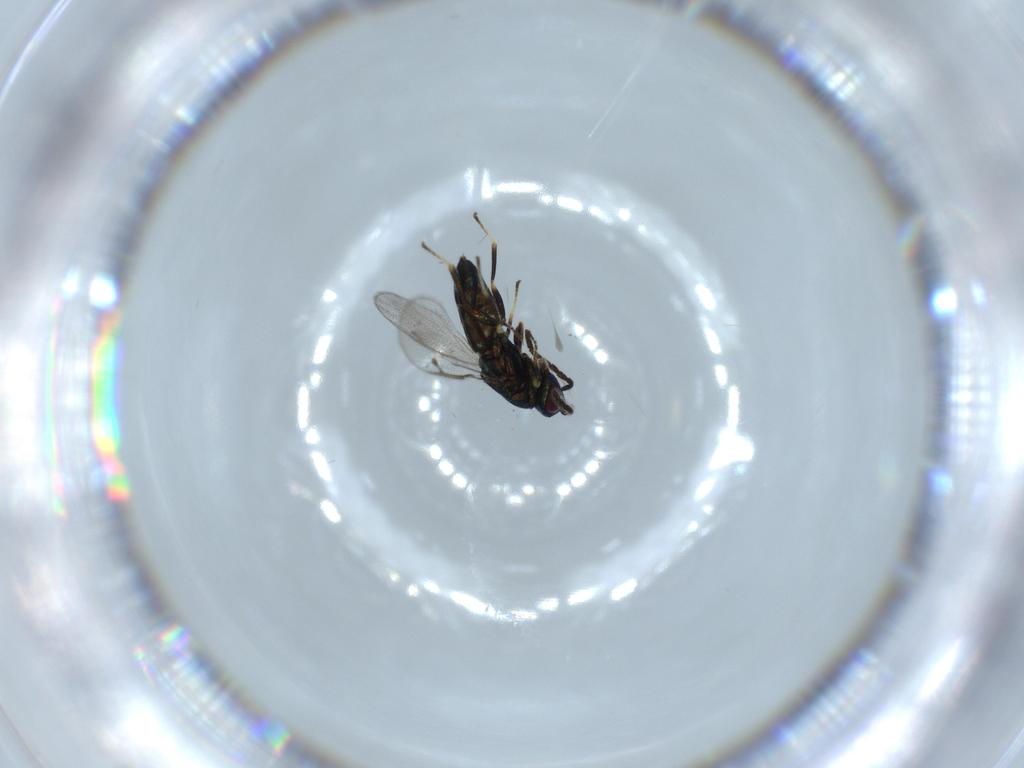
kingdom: Animalia
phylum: Arthropoda
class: Insecta
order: Hymenoptera
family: Pteromalidae
